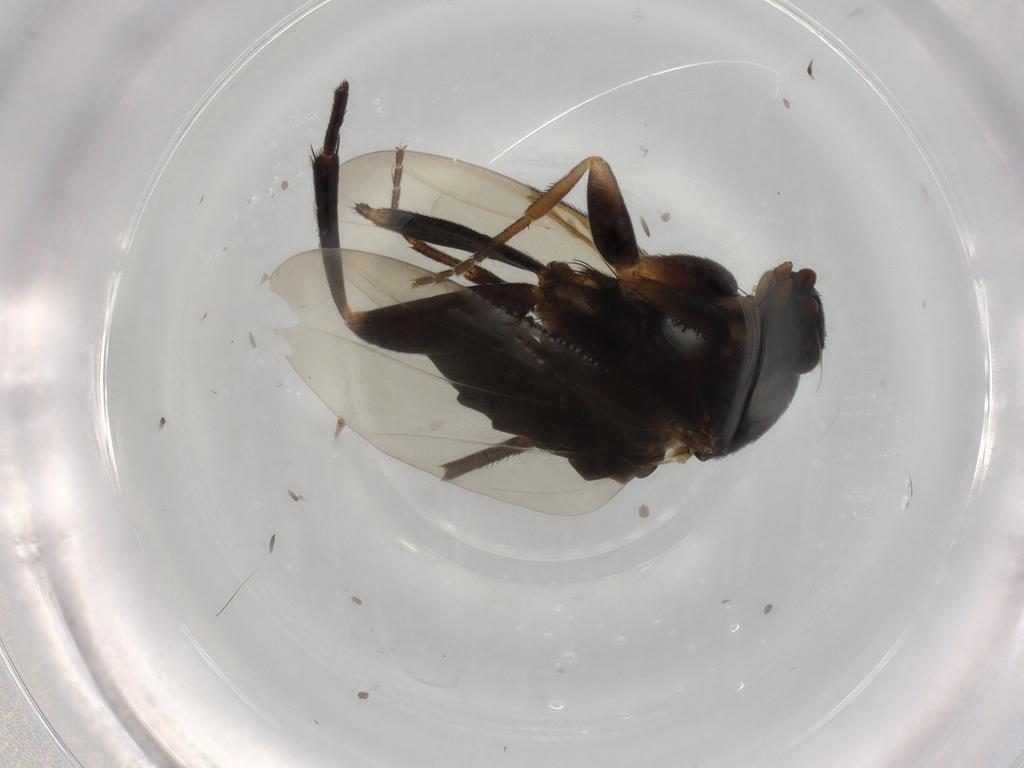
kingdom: Animalia
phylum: Arthropoda
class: Insecta
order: Diptera
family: Phoridae
